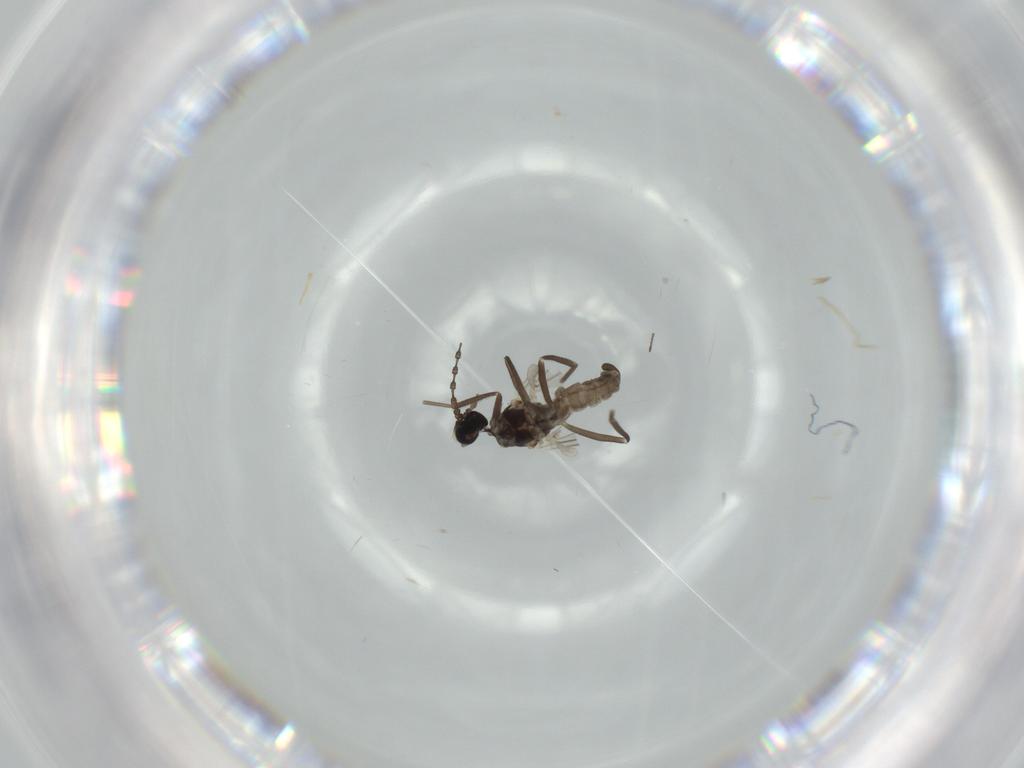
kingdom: Animalia
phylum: Arthropoda
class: Insecta
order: Diptera
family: Cecidomyiidae
